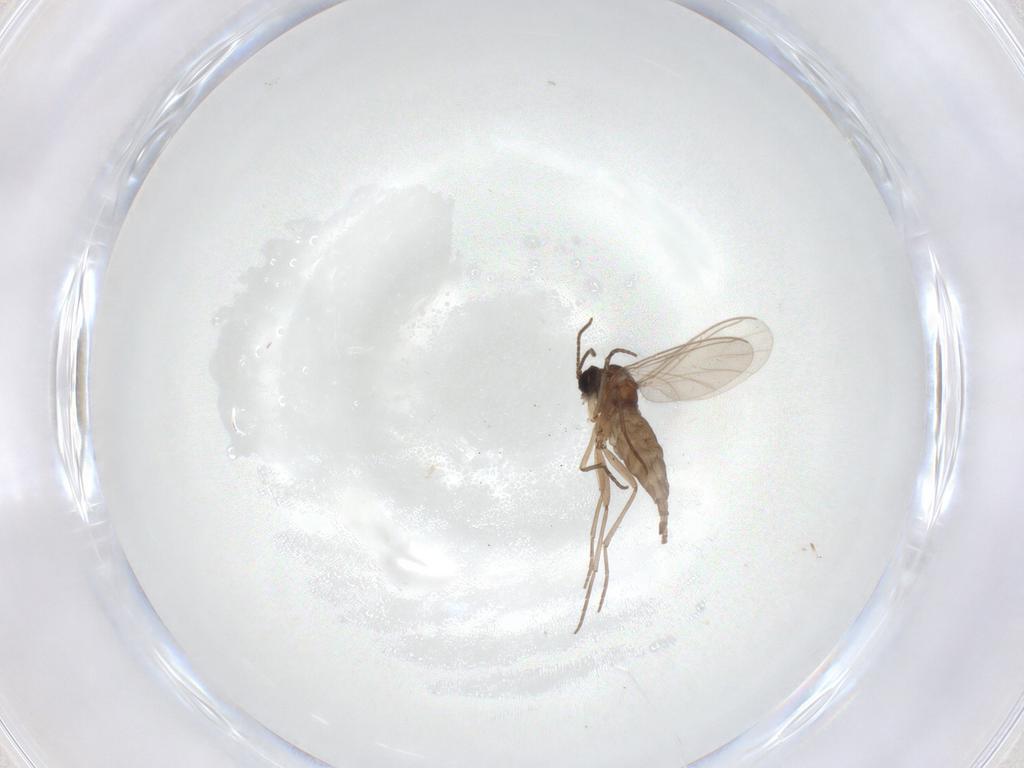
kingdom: Animalia
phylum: Arthropoda
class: Insecta
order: Diptera
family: Sciaridae
